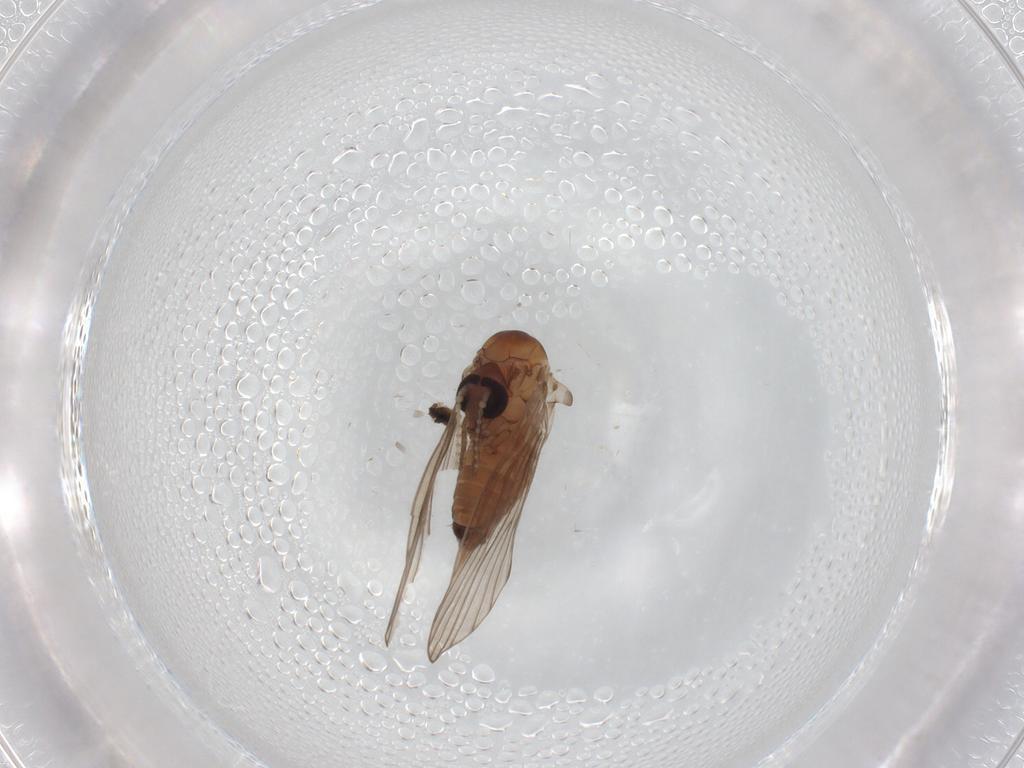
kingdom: Animalia
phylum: Arthropoda
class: Insecta
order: Diptera
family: Psychodidae
